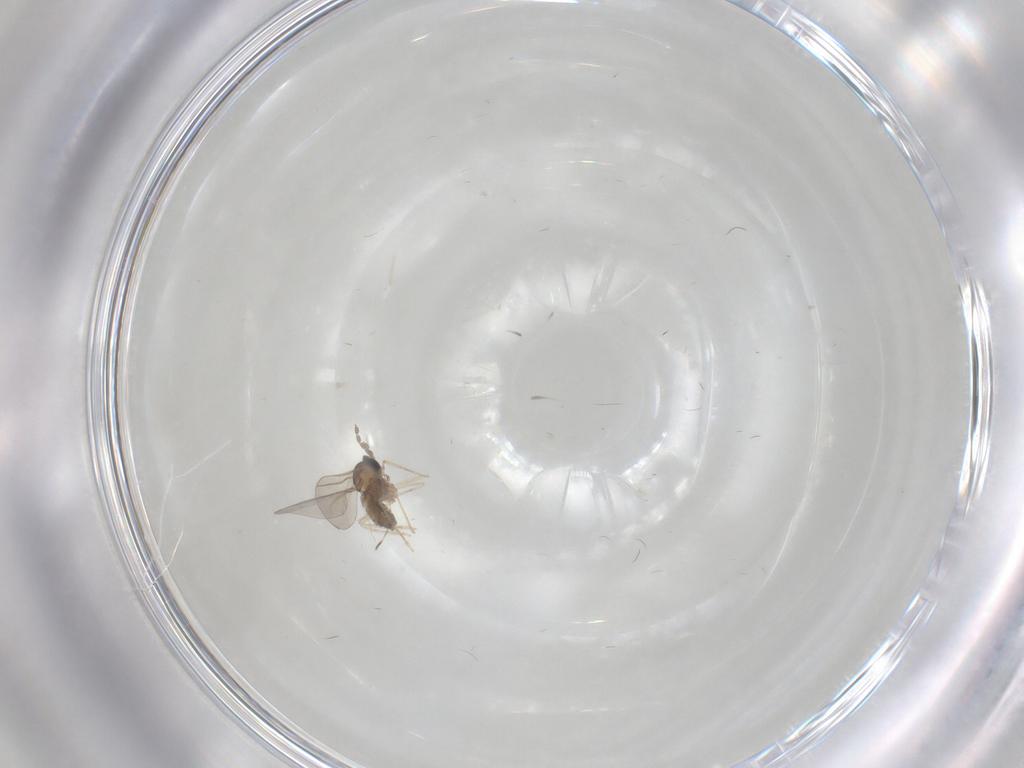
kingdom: Animalia
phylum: Arthropoda
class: Insecta
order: Diptera
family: Cecidomyiidae
